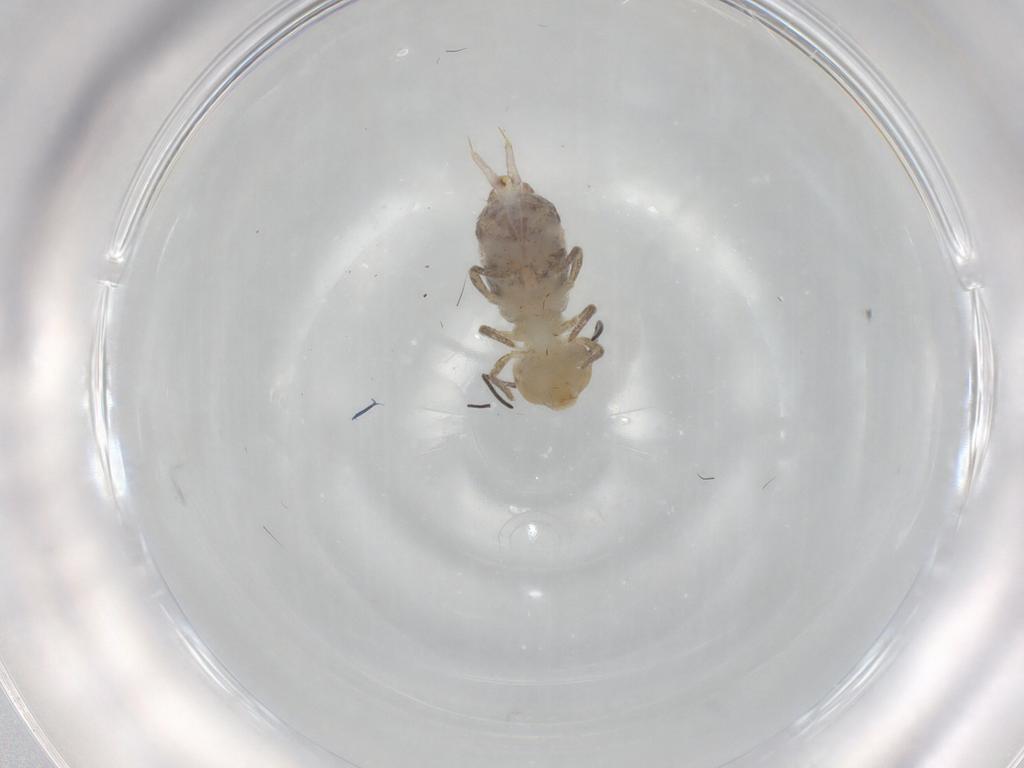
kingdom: Animalia
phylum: Arthropoda
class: Collembola
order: Symphypleona
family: Sminthuridae
